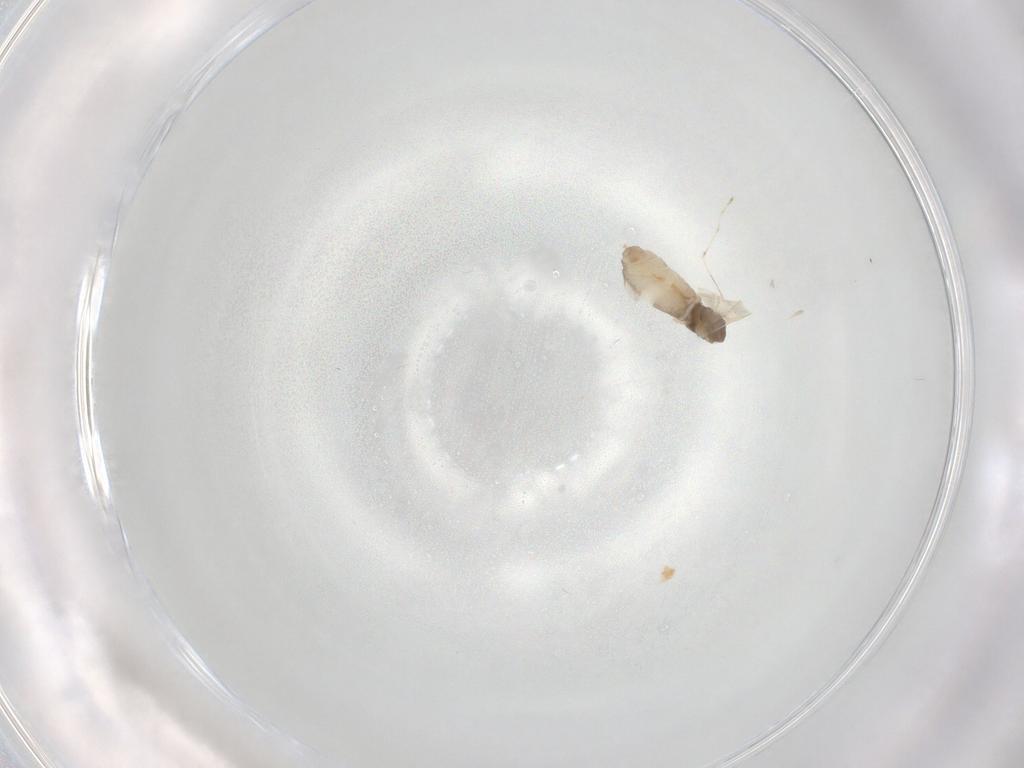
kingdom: Animalia
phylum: Arthropoda
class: Insecta
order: Diptera
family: Cecidomyiidae
